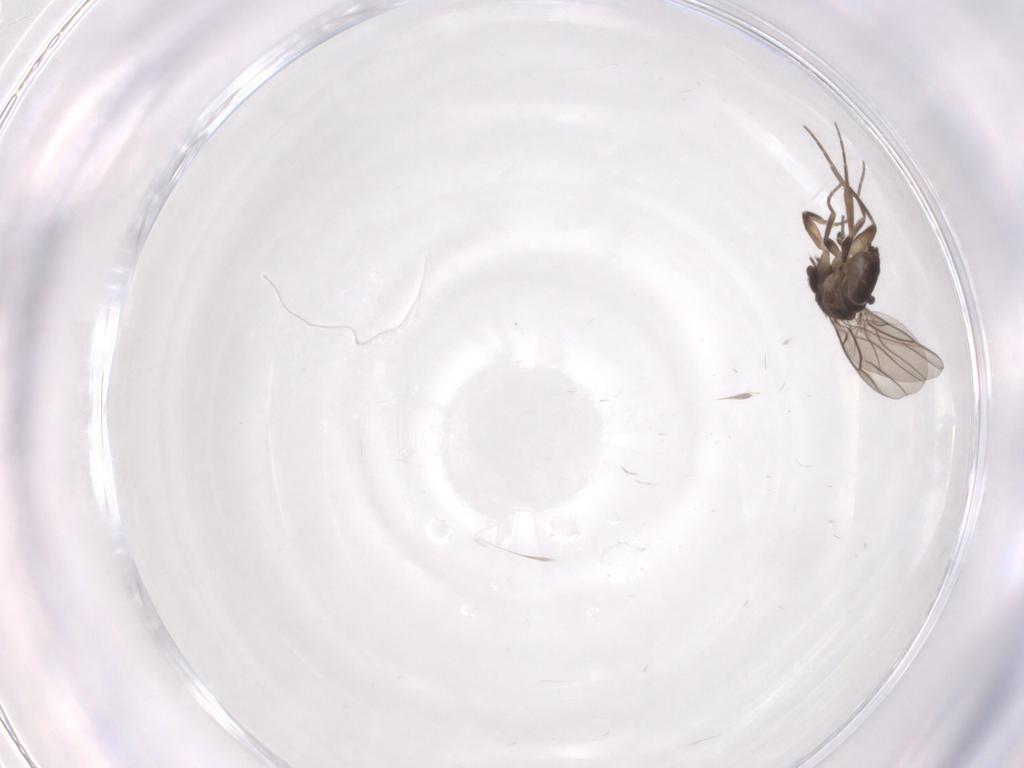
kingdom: Animalia
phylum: Arthropoda
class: Insecta
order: Diptera
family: Phoridae
